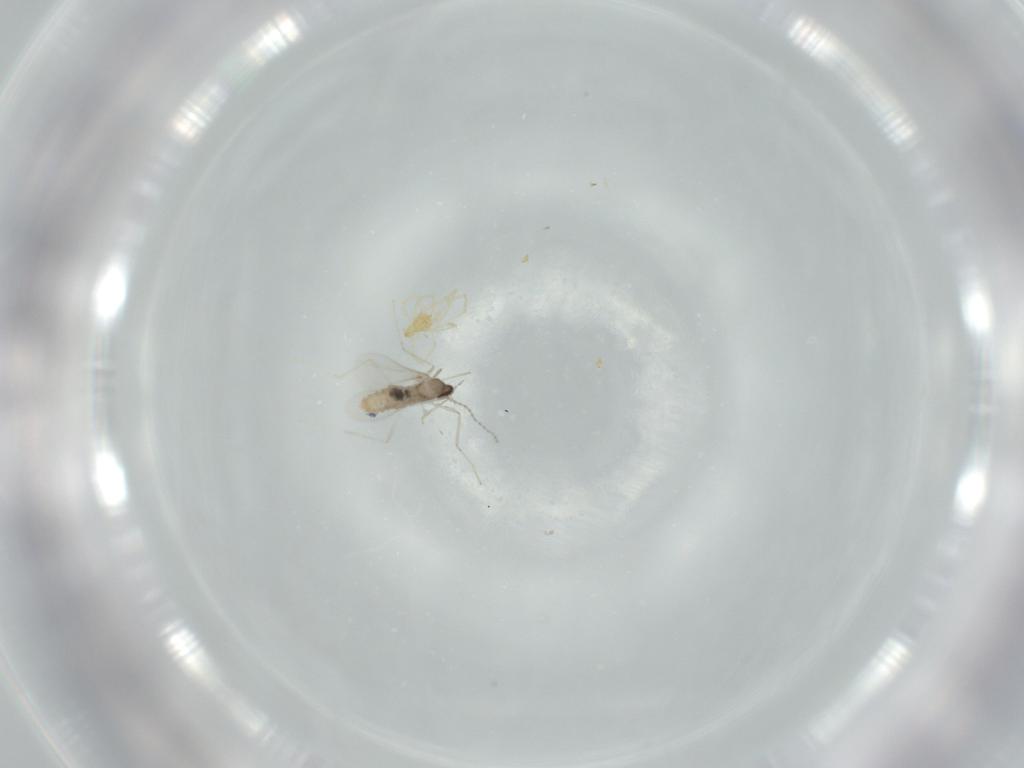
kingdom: Animalia
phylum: Arthropoda
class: Insecta
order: Diptera
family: Cecidomyiidae
